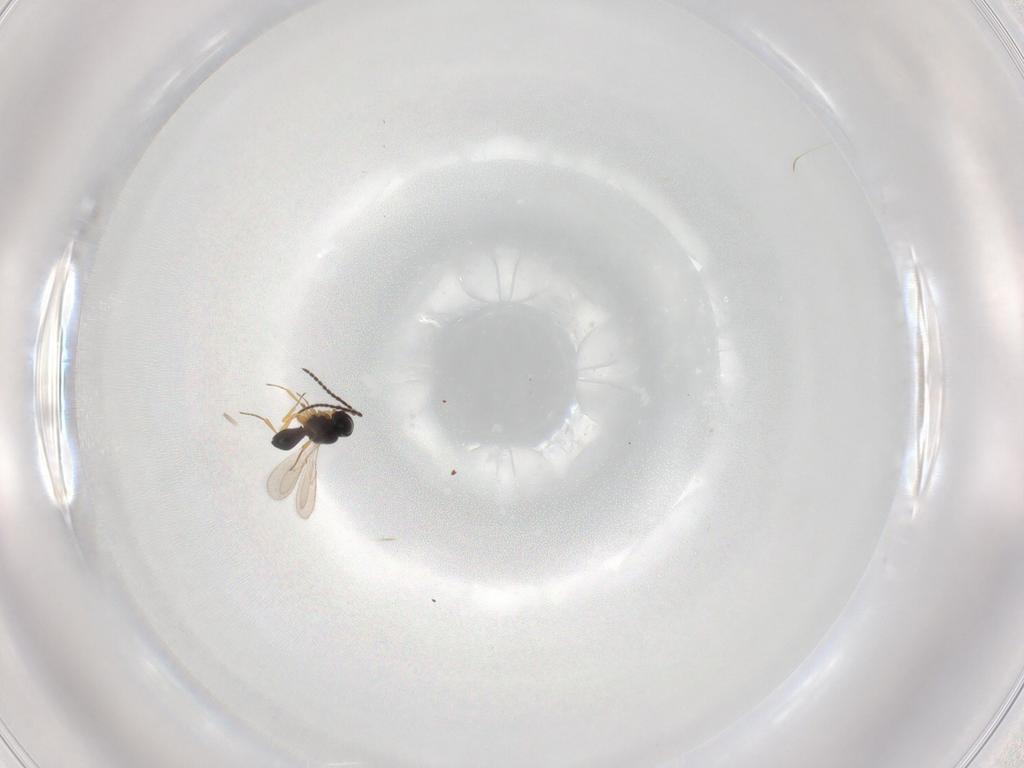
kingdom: Animalia
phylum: Arthropoda
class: Insecta
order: Hymenoptera
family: Scelionidae
